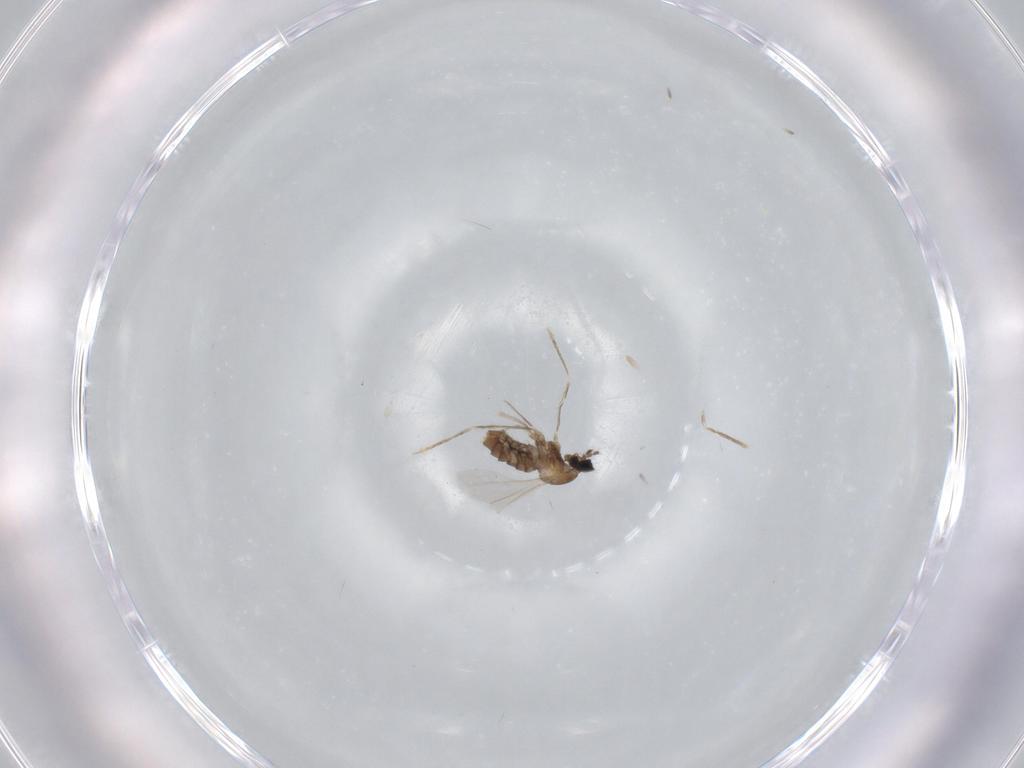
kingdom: Animalia
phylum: Arthropoda
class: Insecta
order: Diptera
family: Cecidomyiidae
